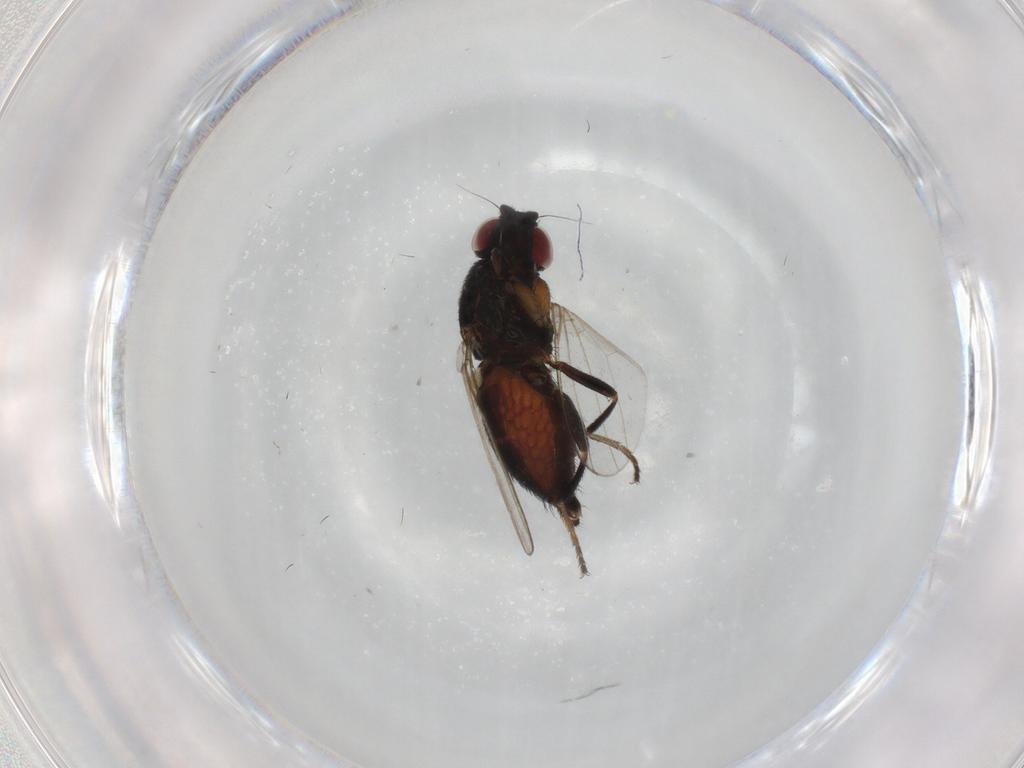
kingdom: Animalia
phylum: Arthropoda
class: Insecta
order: Diptera
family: Milichiidae
